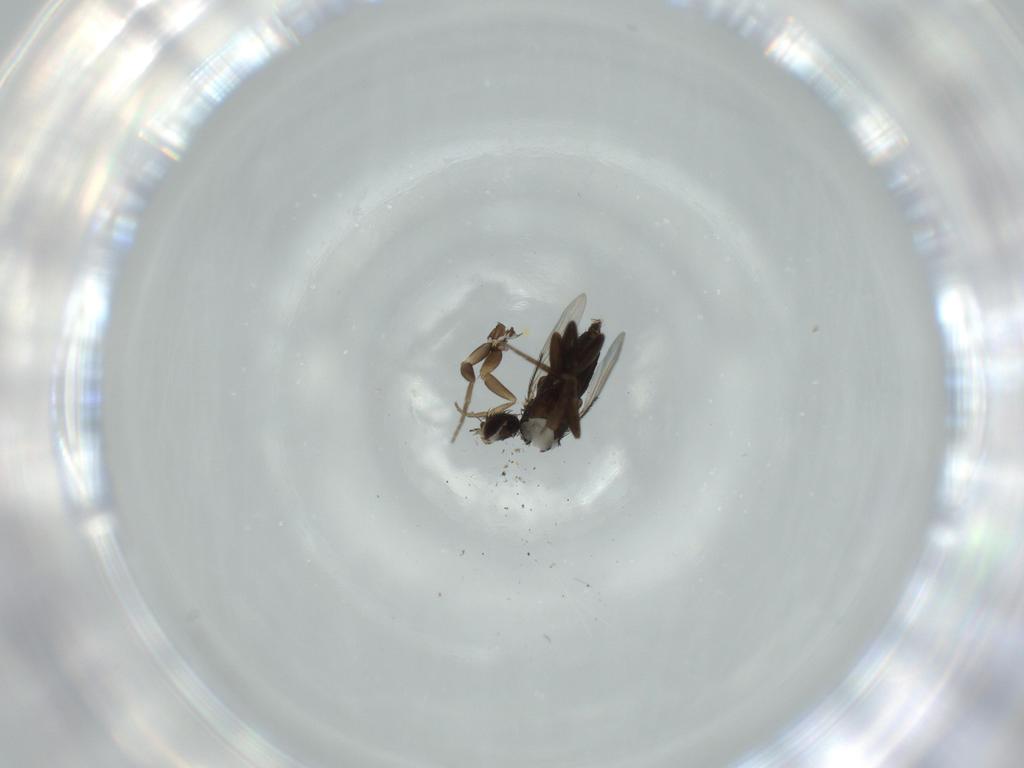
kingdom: Animalia
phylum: Arthropoda
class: Insecta
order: Diptera
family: Phoridae
